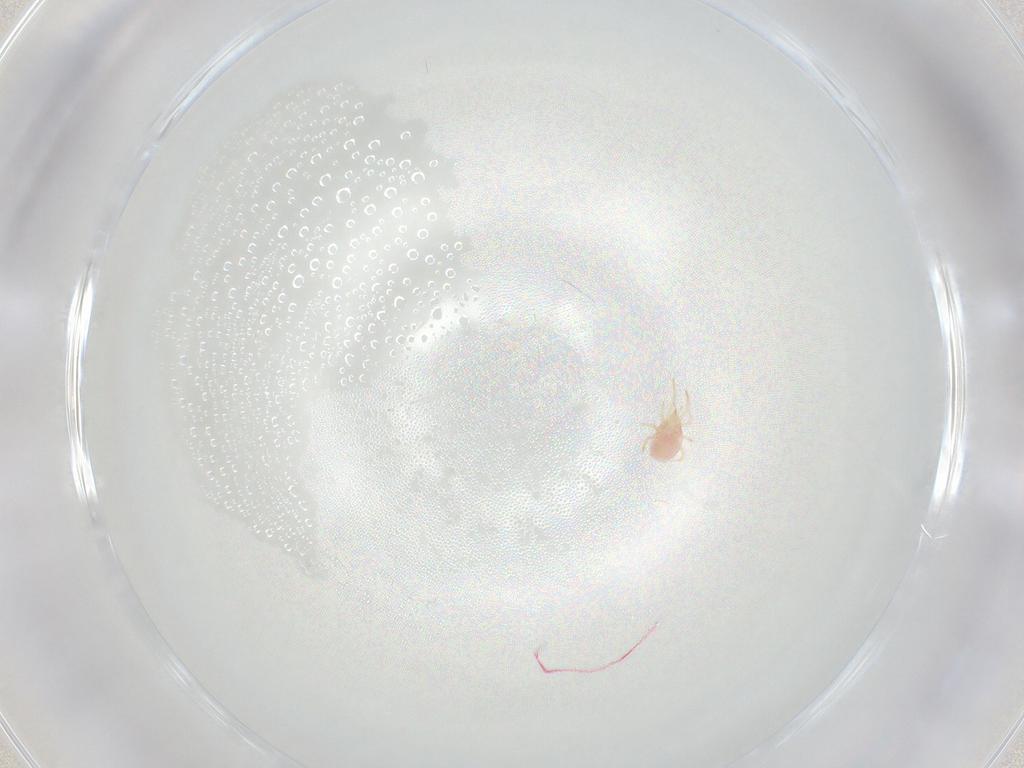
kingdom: Animalia
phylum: Arthropoda
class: Arachnida
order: Mesostigmata
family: Phytoseiidae
